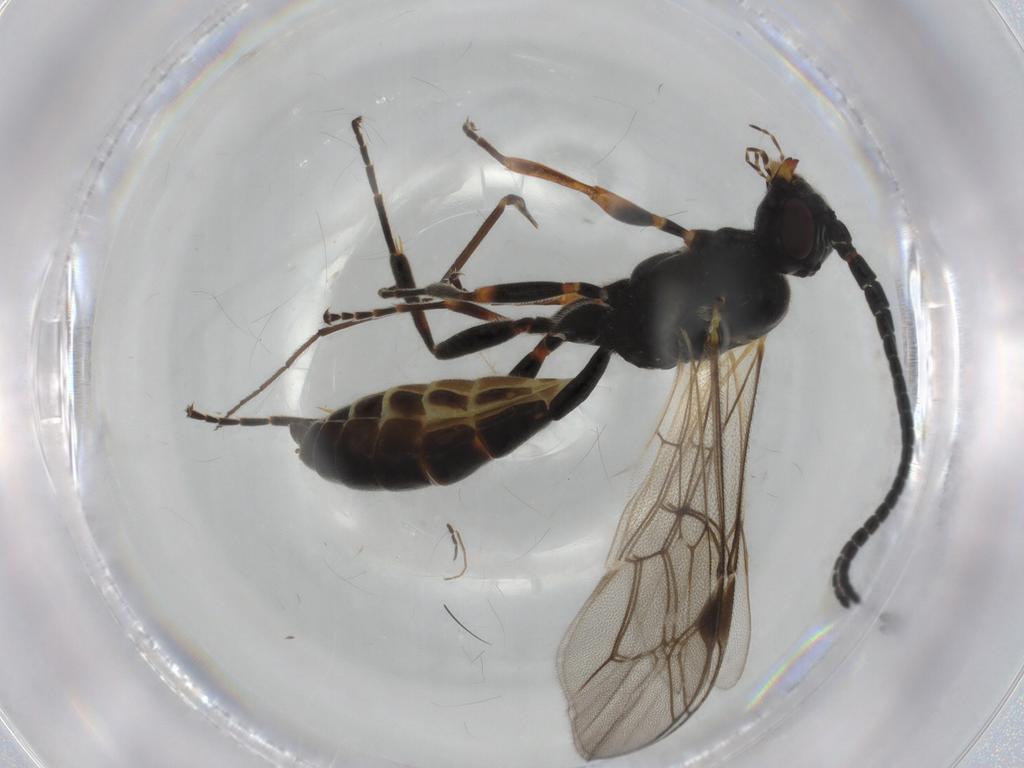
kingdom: Animalia
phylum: Arthropoda
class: Insecta
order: Hymenoptera
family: Ichneumonidae
